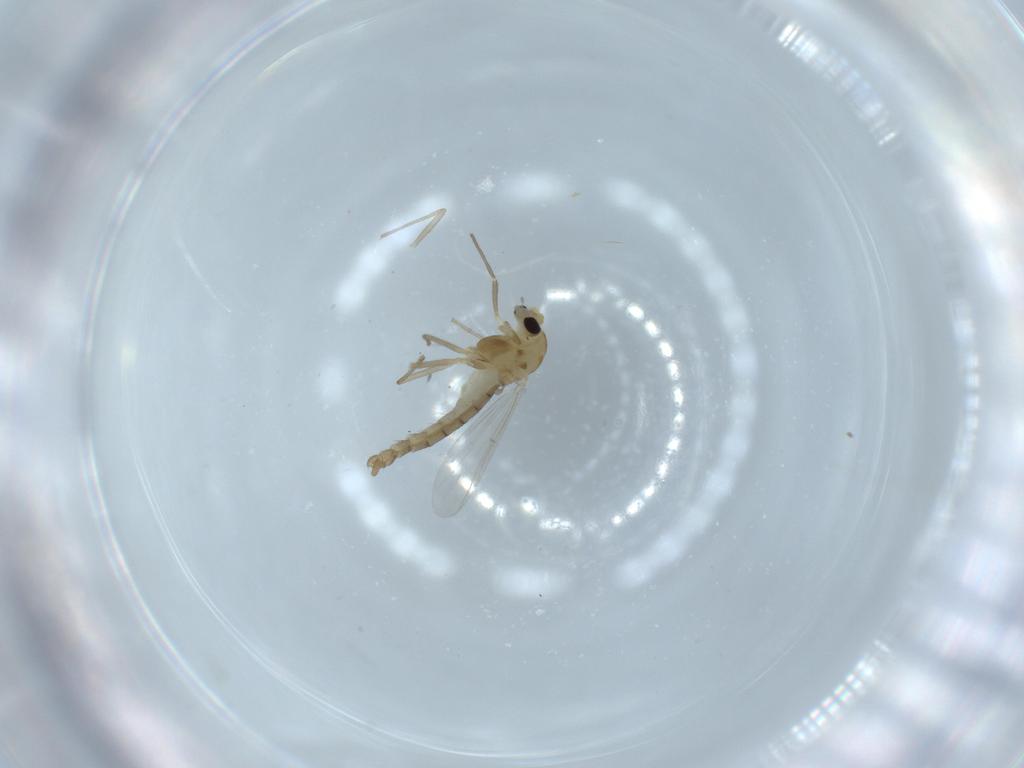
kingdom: Animalia
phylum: Arthropoda
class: Insecta
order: Diptera
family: Chironomidae
